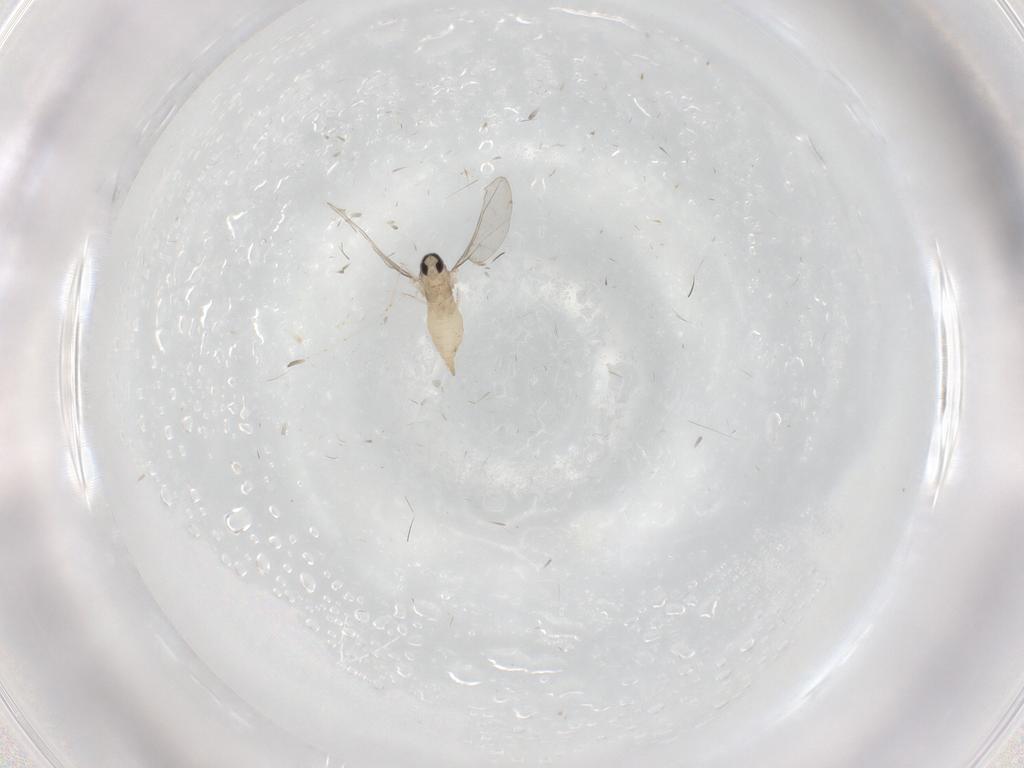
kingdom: Animalia
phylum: Arthropoda
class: Insecta
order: Diptera
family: Cecidomyiidae
